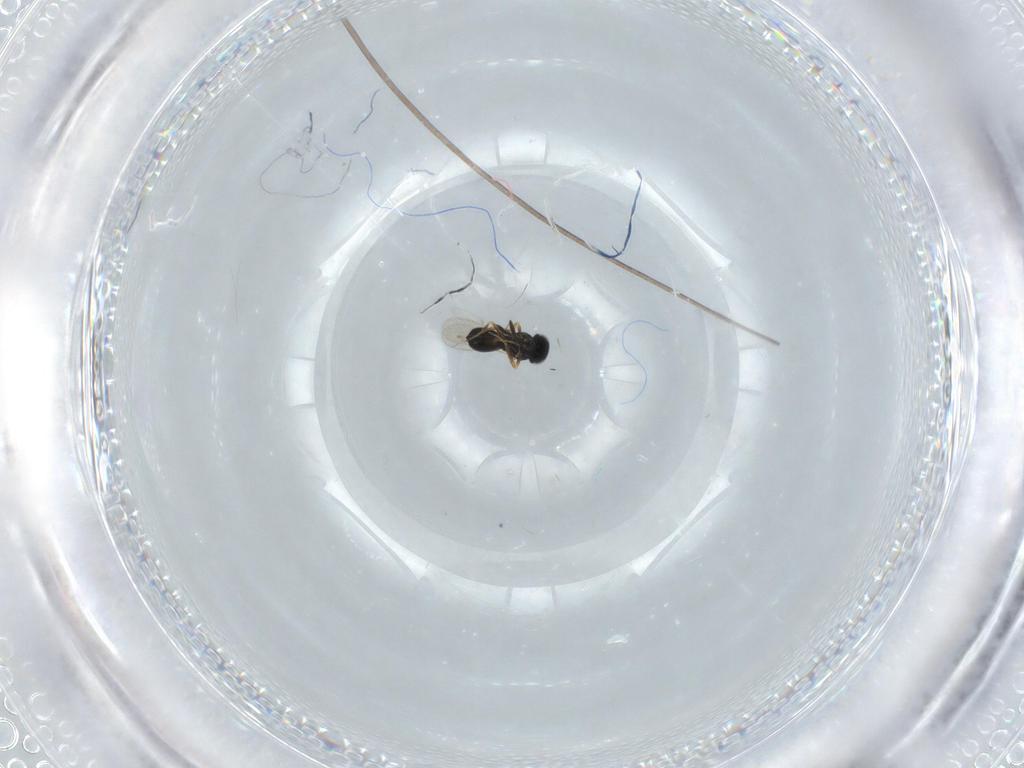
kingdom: Animalia
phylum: Arthropoda
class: Insecta
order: Hymenoptera
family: Scelionidae
